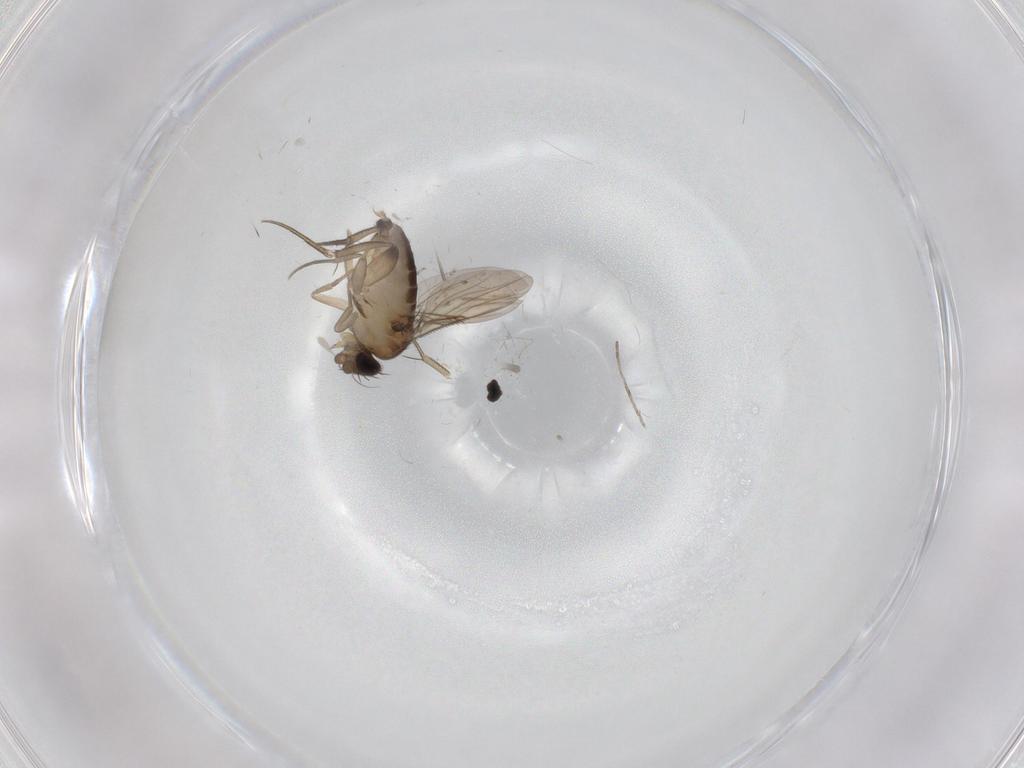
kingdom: Animalia
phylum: Arthropoda
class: Insecta
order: Diptera
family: Phoridae
